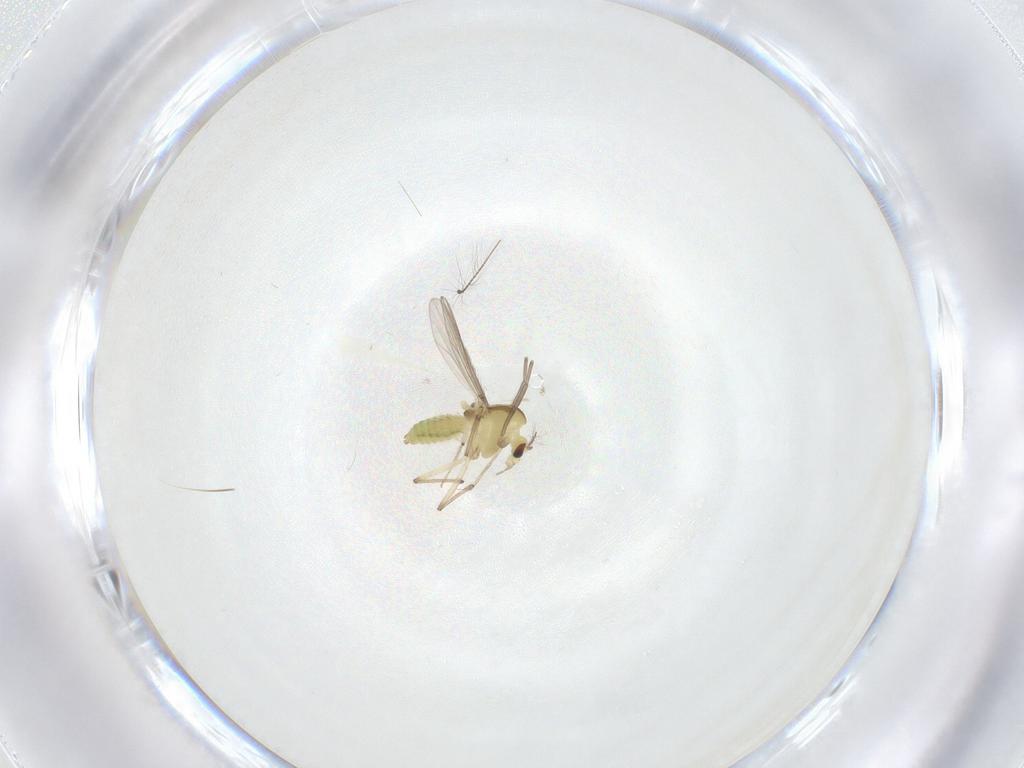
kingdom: Animalia
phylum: Arthropoda
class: Insecta
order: Diptera
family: Chironomidae
